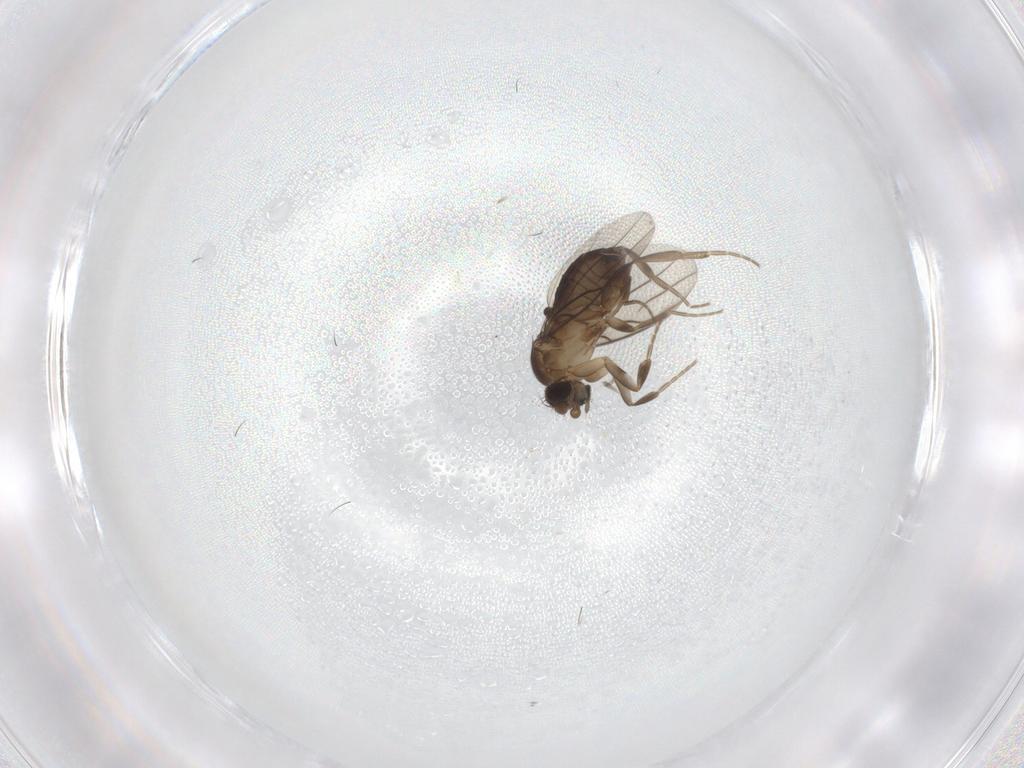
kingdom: Animalia
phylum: Arthropoda
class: Insecta
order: Diptera
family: Phoridae
